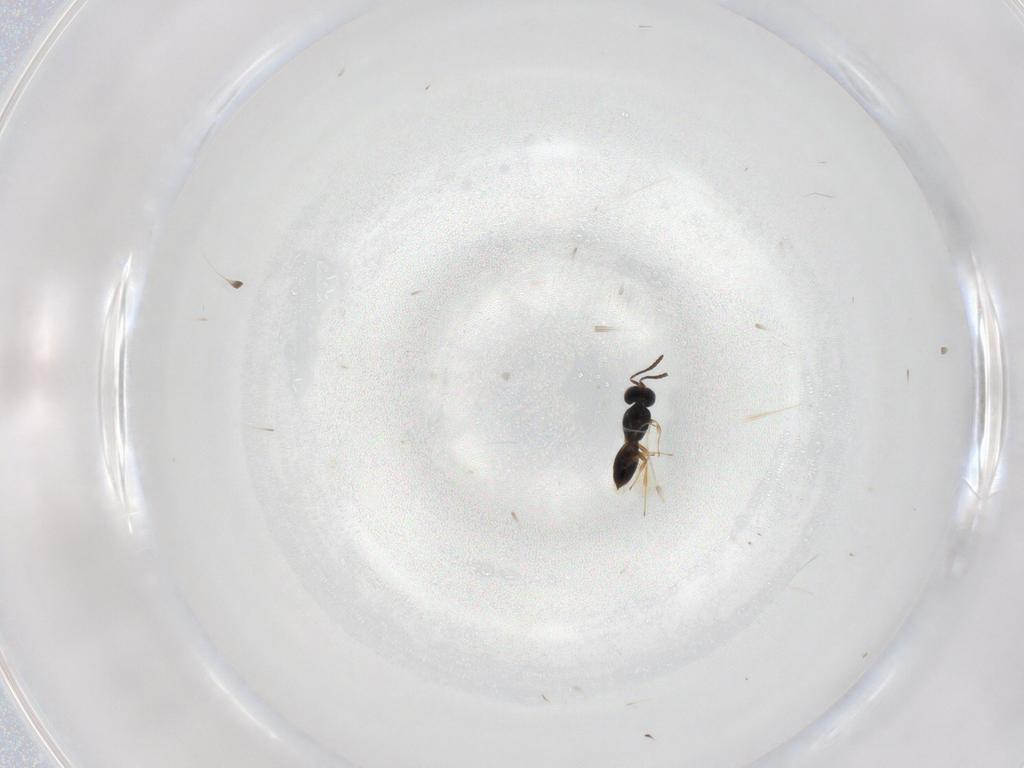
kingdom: Animalia
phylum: Arthropoda
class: Insecta
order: Hymenoptera
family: Scelionidae
